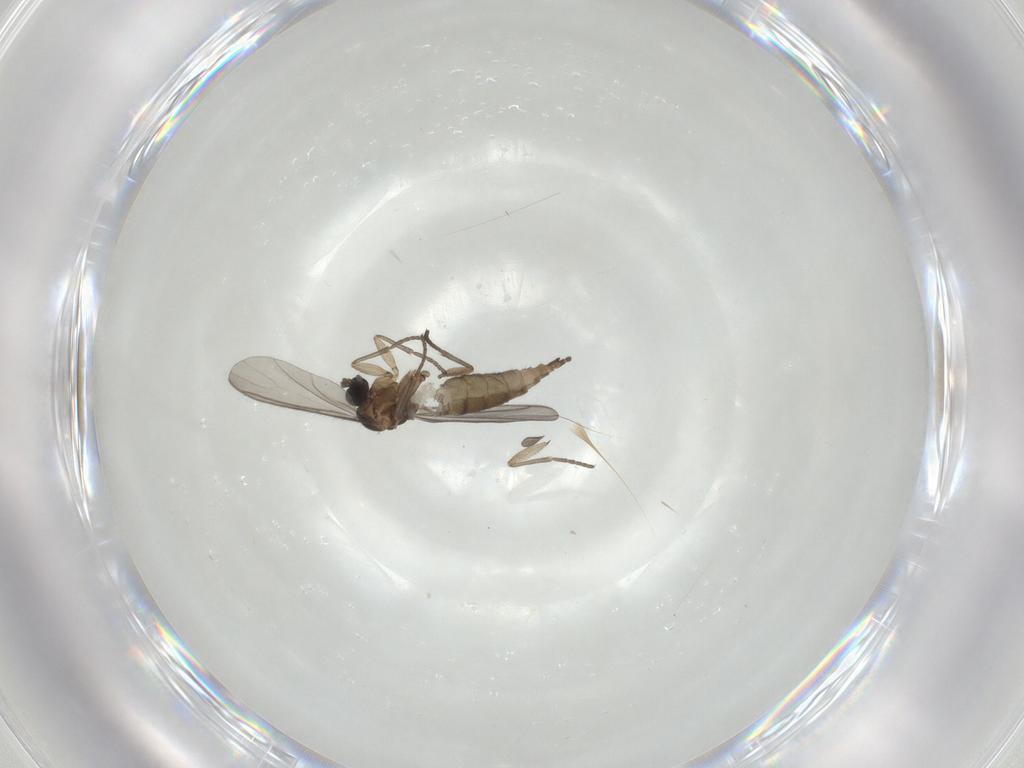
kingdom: Animalia
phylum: Arthropoda
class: Insecta
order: Diptera
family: Sciaridae
